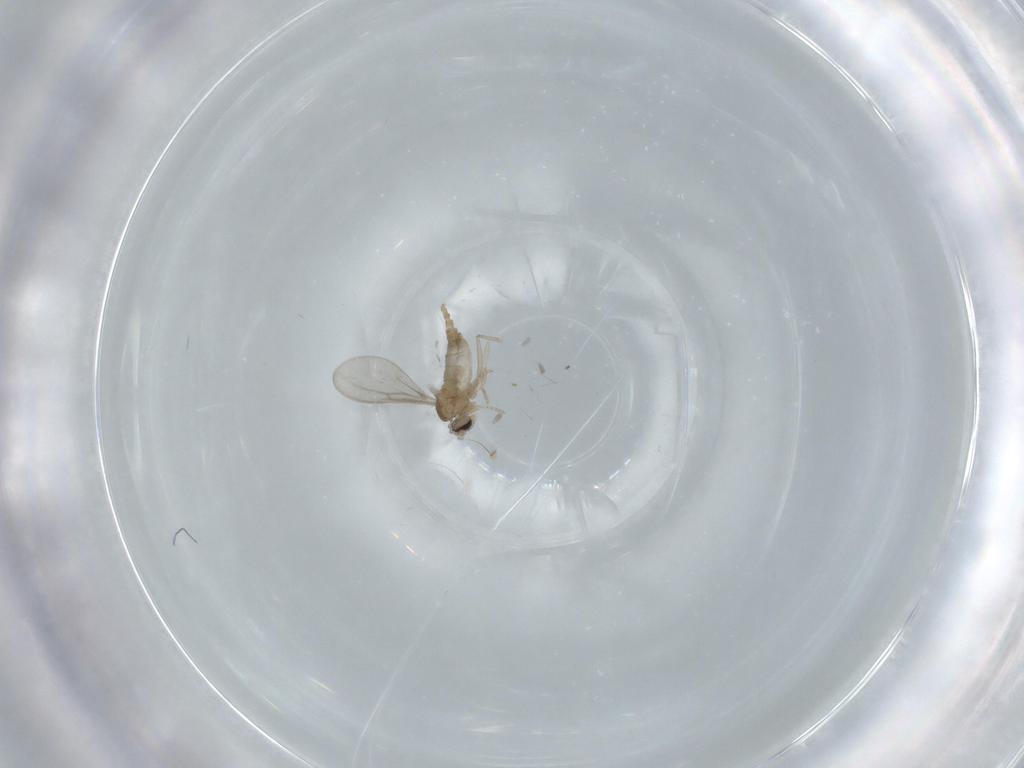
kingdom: Animalia
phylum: Arthropoda
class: Insecta
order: Diptera
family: Cecidomyiidae
